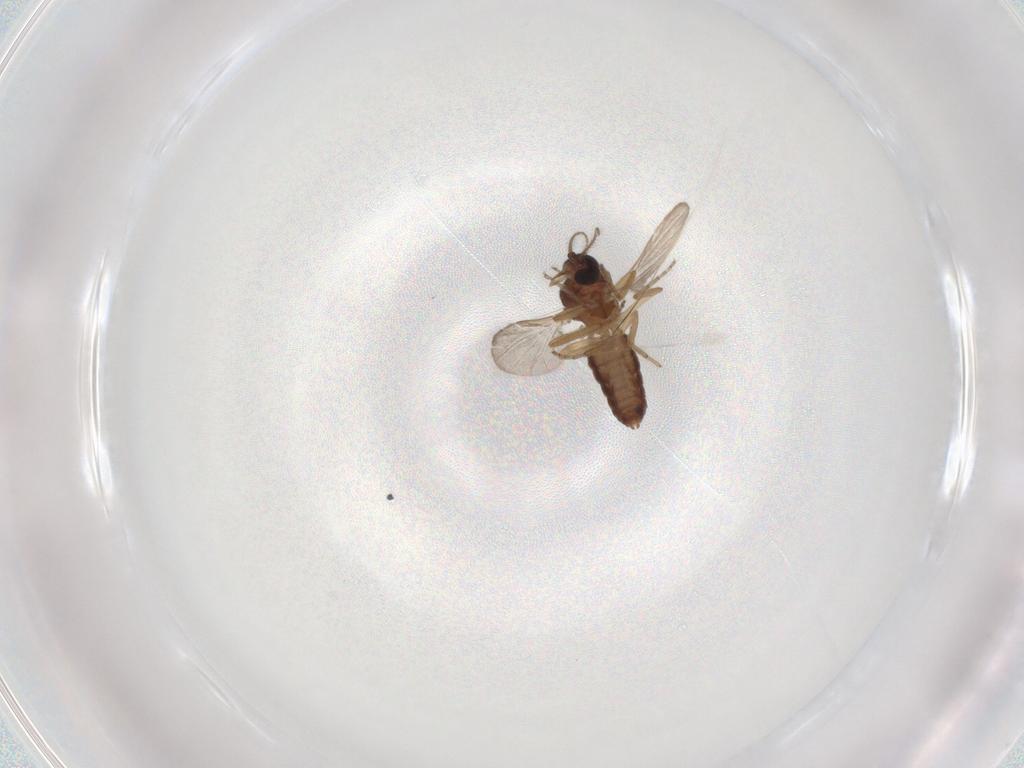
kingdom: Animalia
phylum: Arthropoda
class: Insecta
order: Diptera
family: Ceratopogonidae
